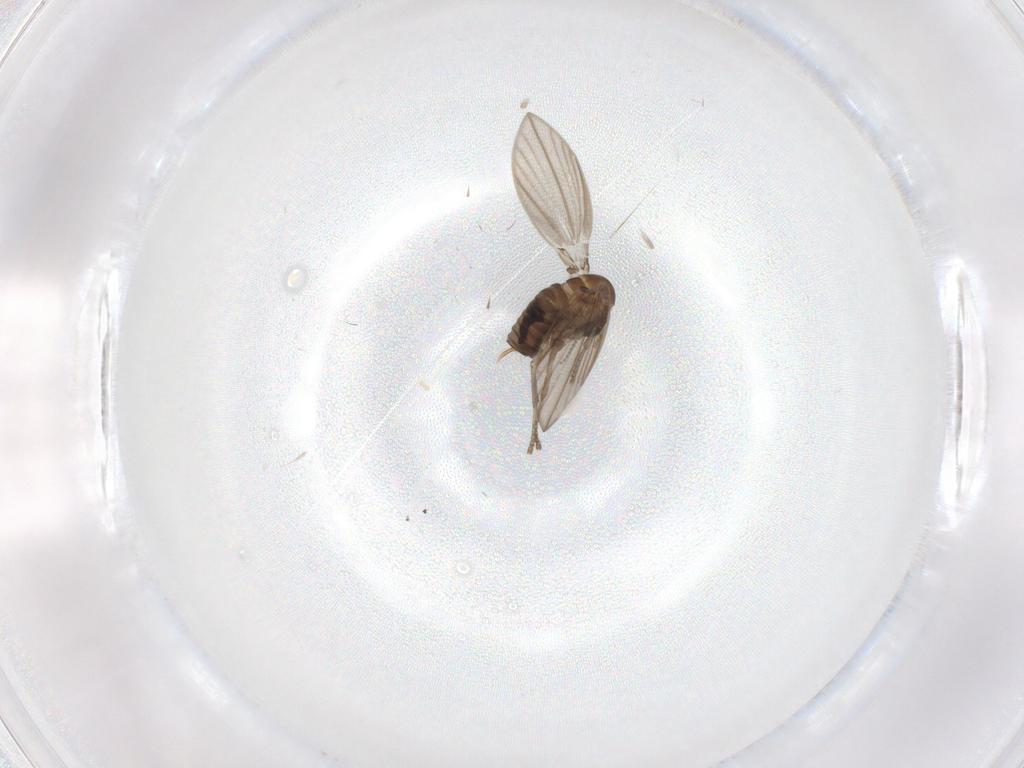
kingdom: Animalia
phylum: Arthropoda
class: Insecta
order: Diptera
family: Psychodidae
